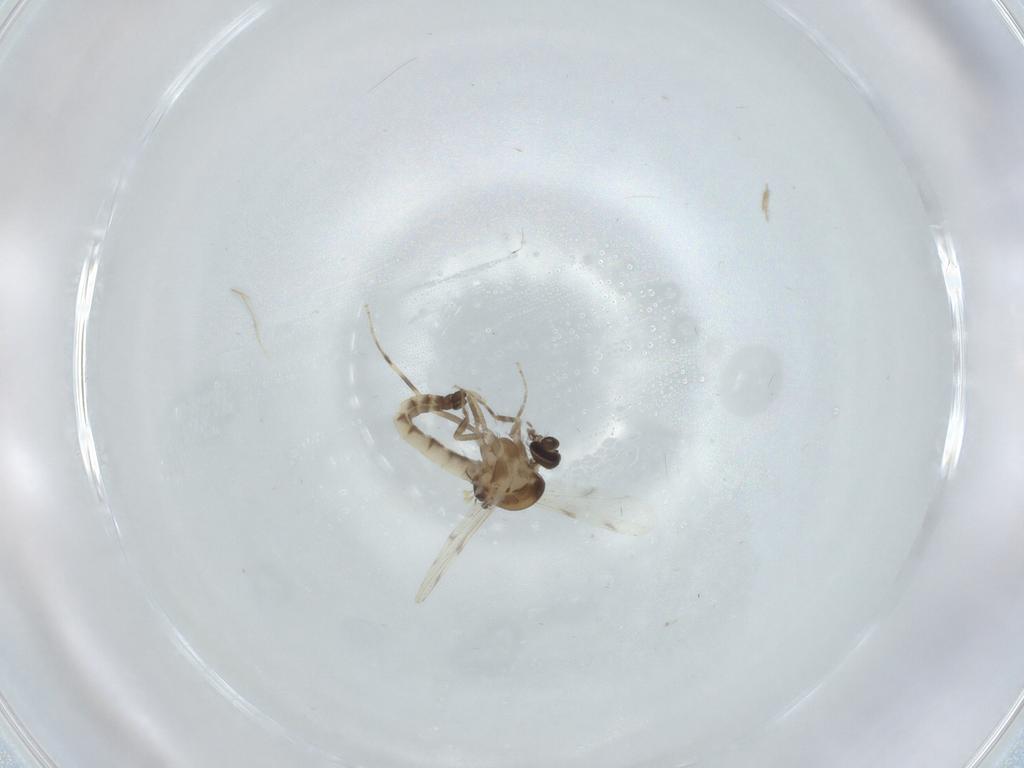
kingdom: Animalia
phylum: Arthropoda
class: Insecta
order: Diptera
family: Ceratopogonidae
